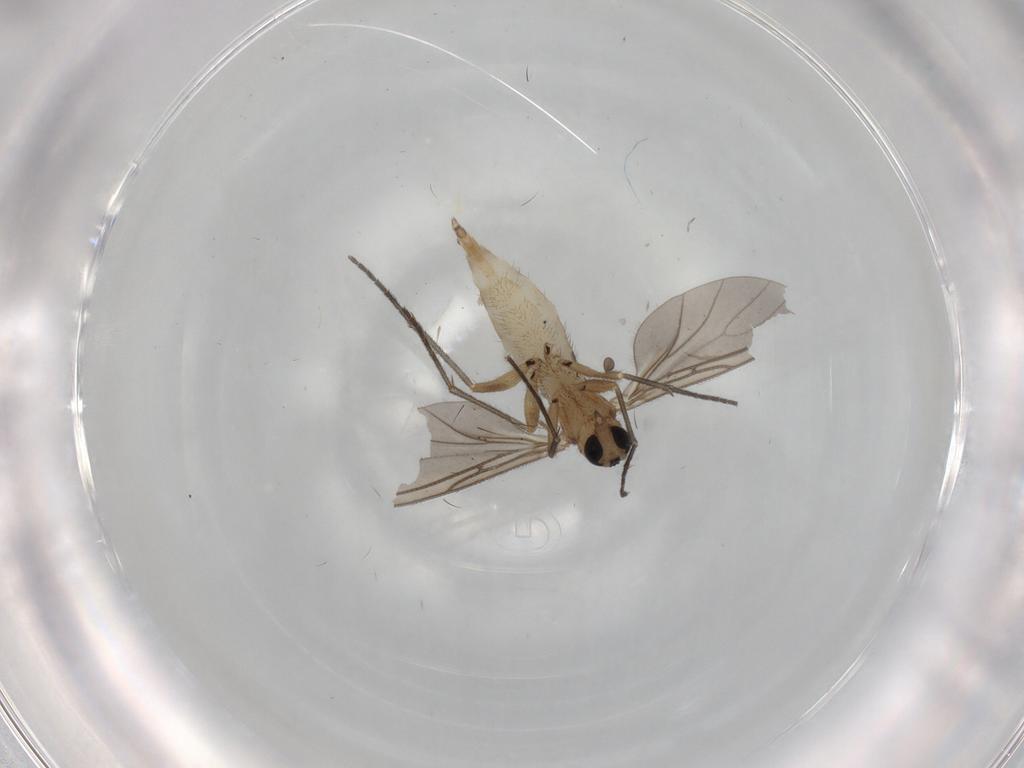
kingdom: Animalia
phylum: Arthropoda
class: Insecta
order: Diptera
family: Sciaridae
